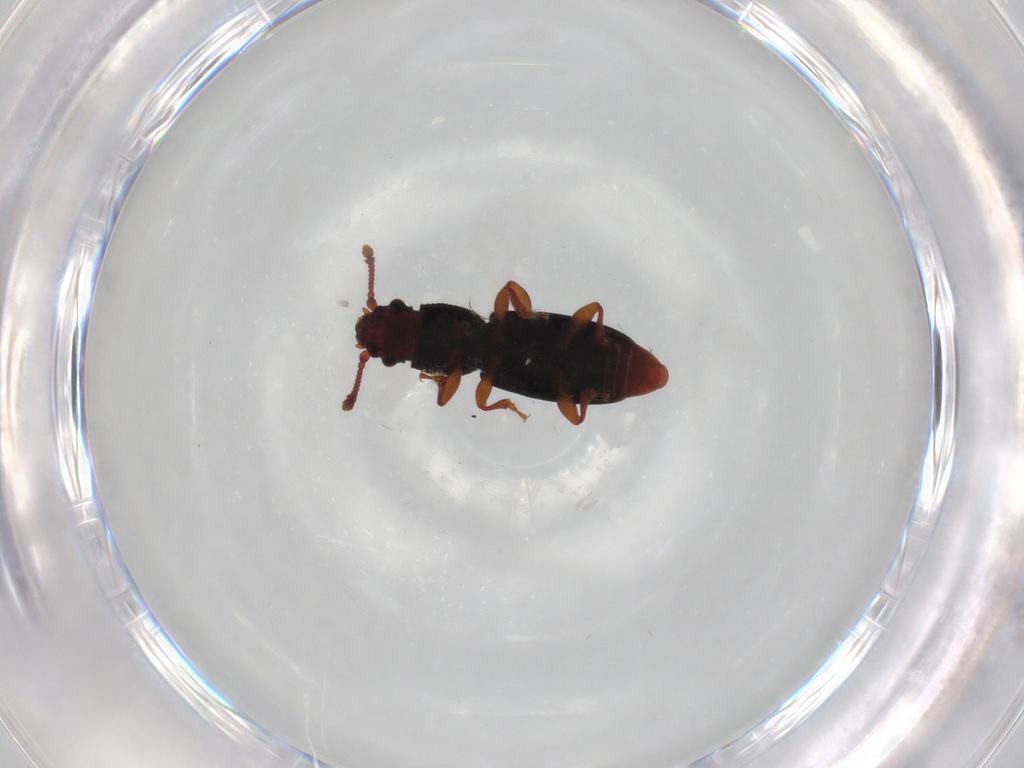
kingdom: Animalia
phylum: Arthropoda
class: Insecta
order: Coleoptera
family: Monotomidae
